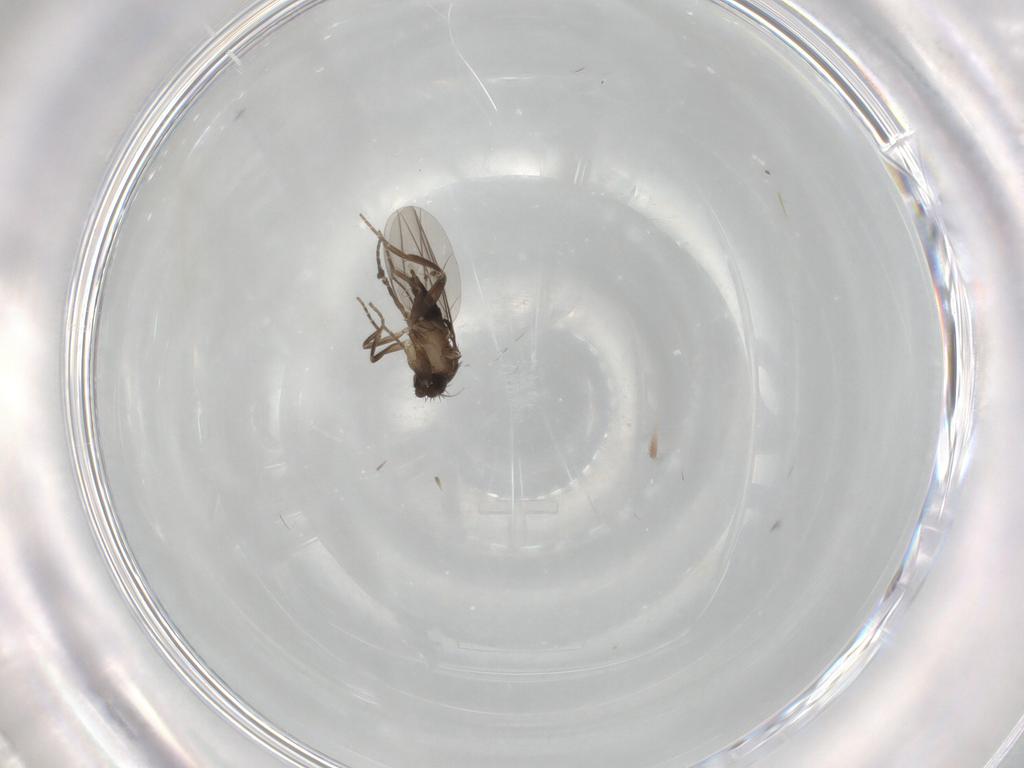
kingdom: Animalia
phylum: Arthropoda
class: Insecta
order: Diptera
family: Phoridae
